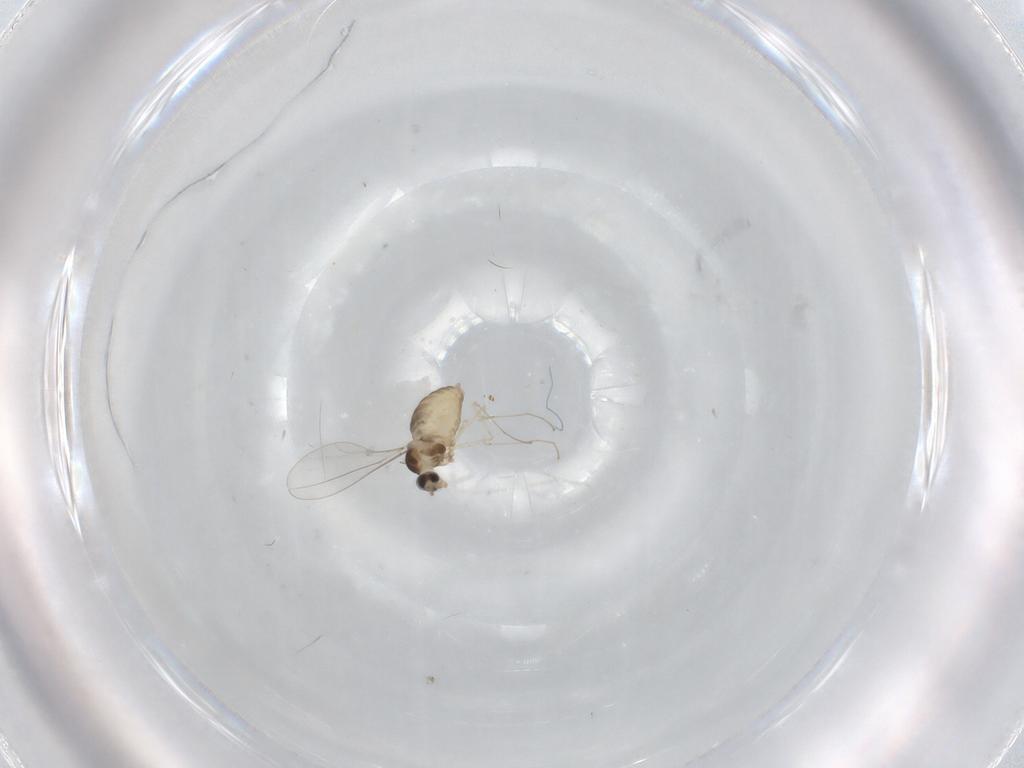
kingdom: Animalia
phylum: Arthropoda
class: Insecta
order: Diptera
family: Cecidomyiidae
